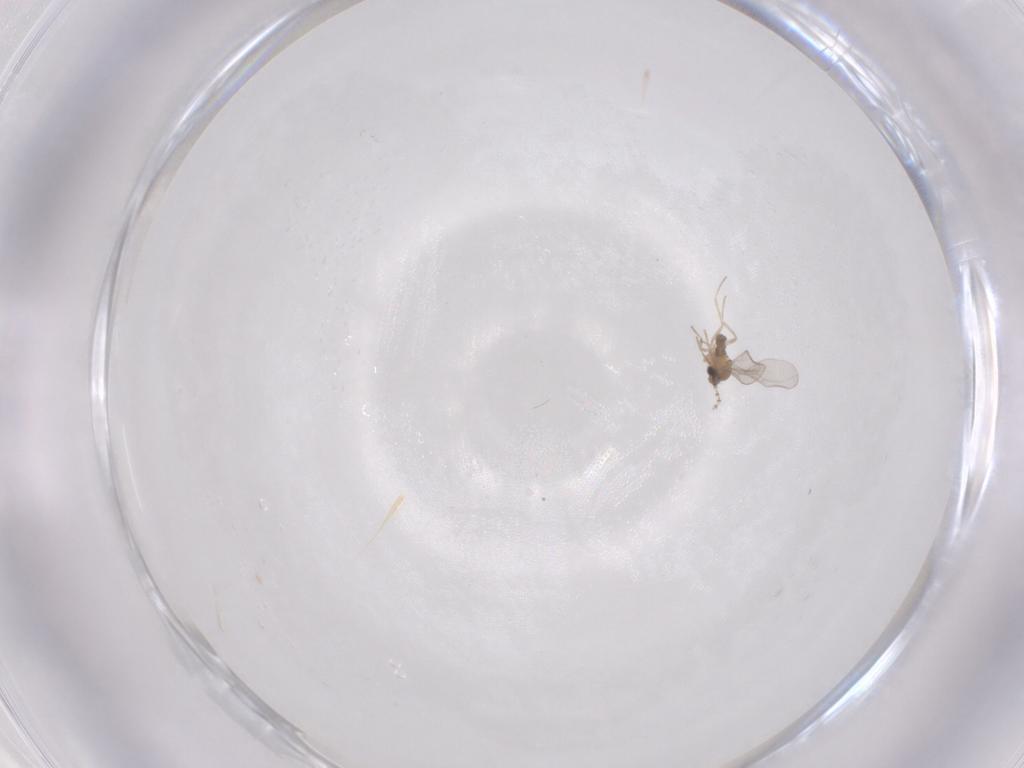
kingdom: Animalia
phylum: Arthropoda
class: Insecta
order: Diptera
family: Cecidomyiidae
